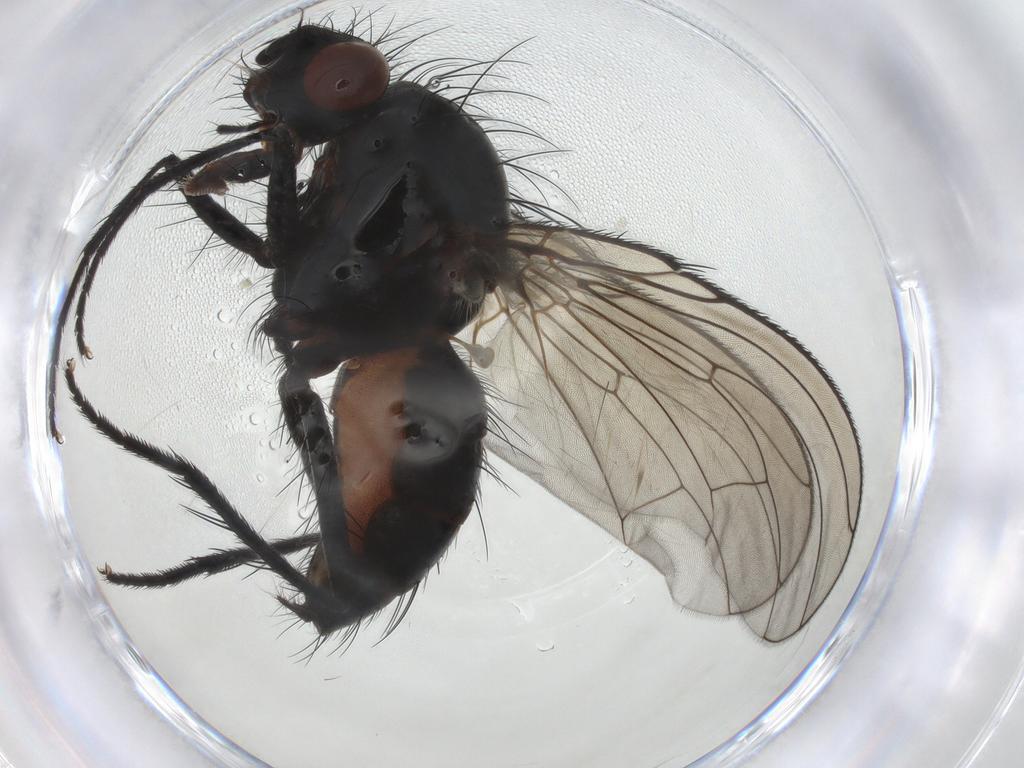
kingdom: Animalia
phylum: Arthropoda
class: Insecta
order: Diptera
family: Anthomyiidae
